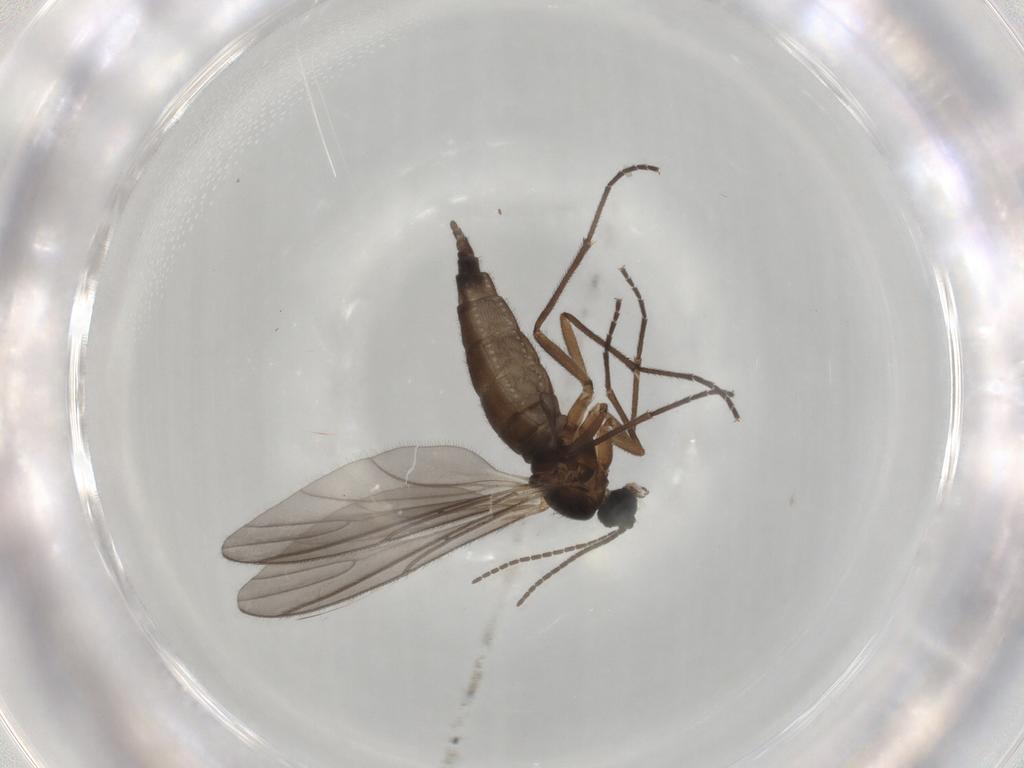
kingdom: Animalia
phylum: Arthropoda
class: Insecta
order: Diptera
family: Sciaridae
